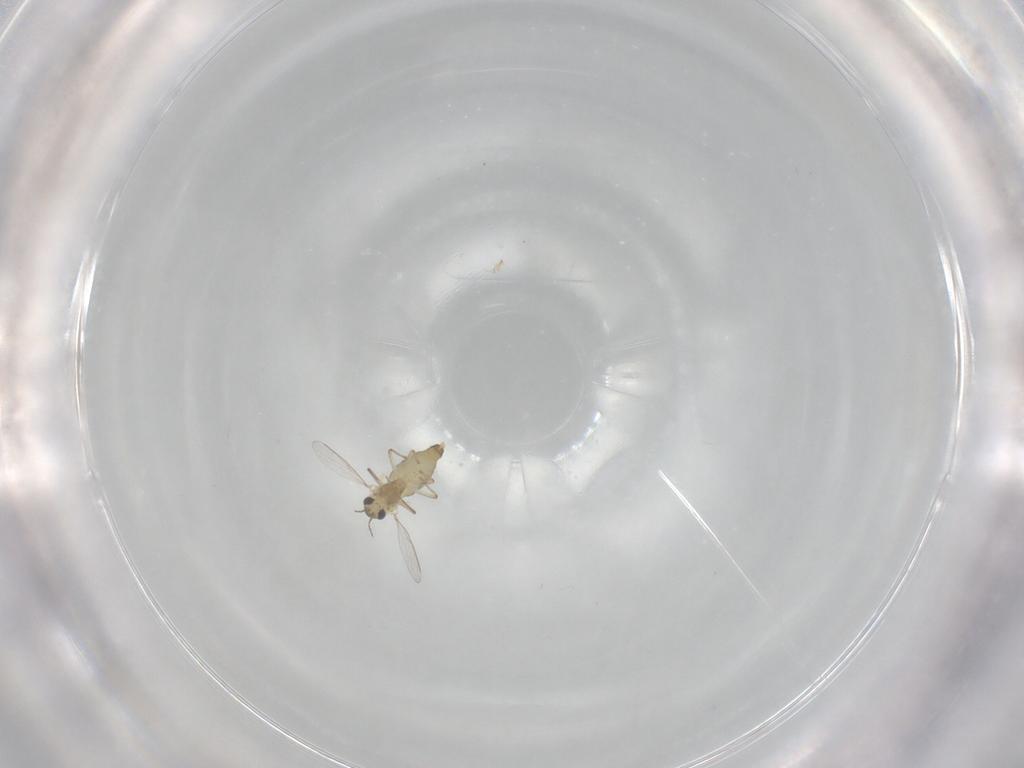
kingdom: Animalia
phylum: Arthropoda
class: Insecta
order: Diptera
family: Chironomidae
